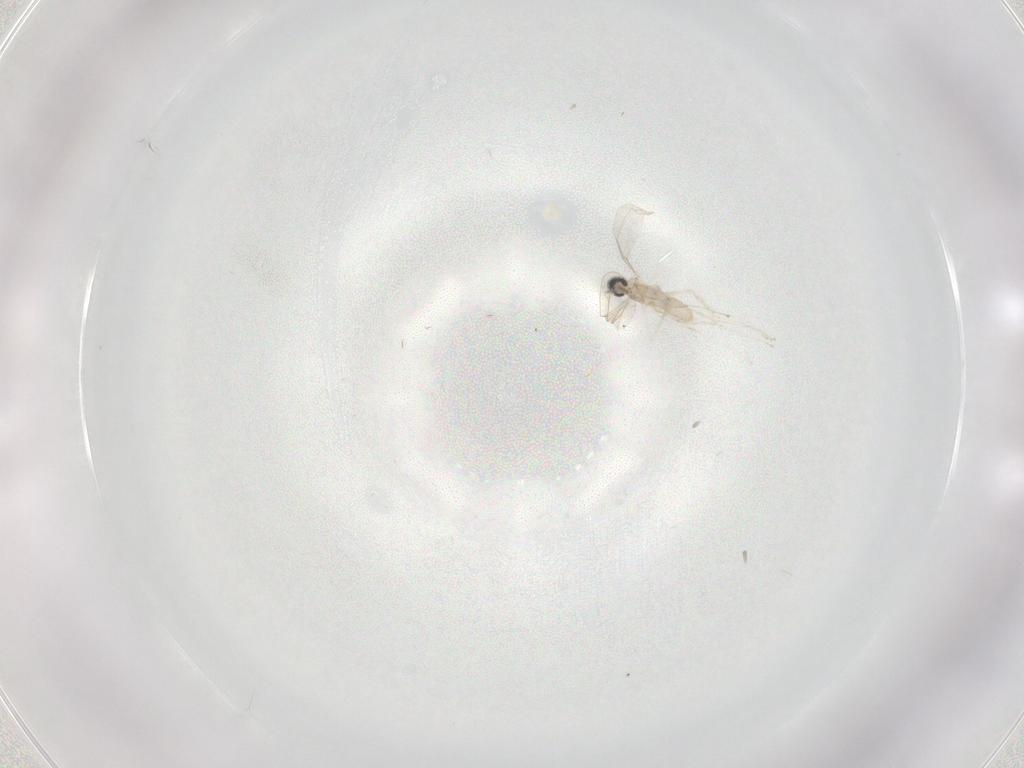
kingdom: Animalia
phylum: Arthropoda
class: Insecta
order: Diptera
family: Cecidomyiidae
